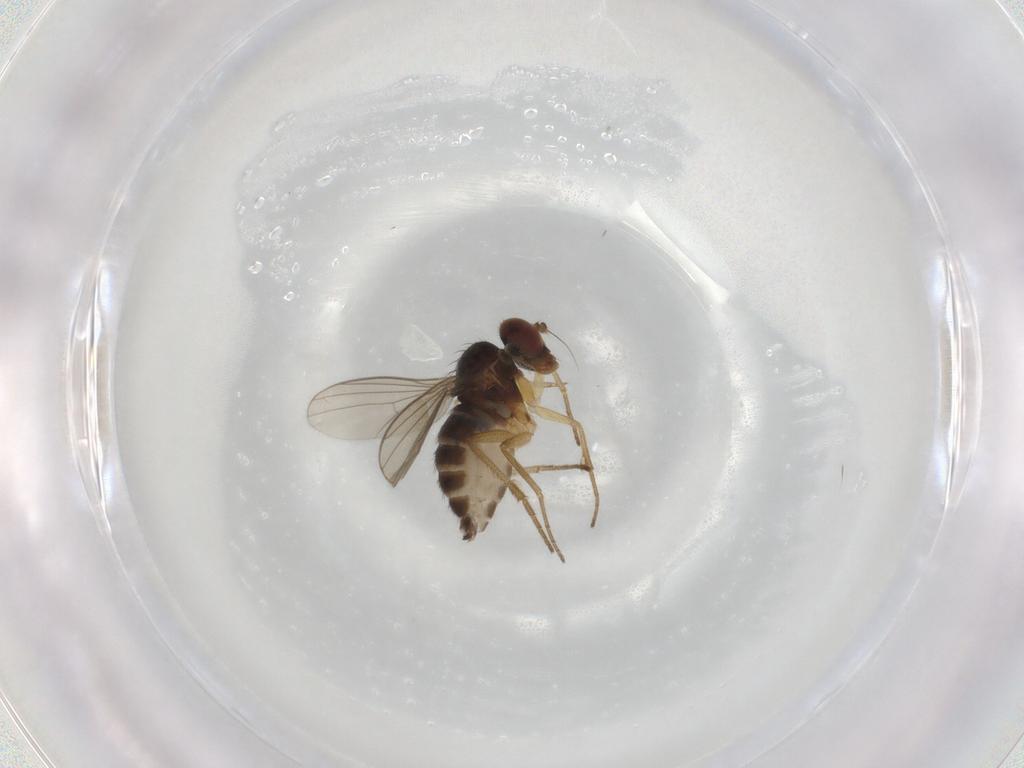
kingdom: Animalia
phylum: Arthropoda
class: Insecta
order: Diptera
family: Dolichopodidae
